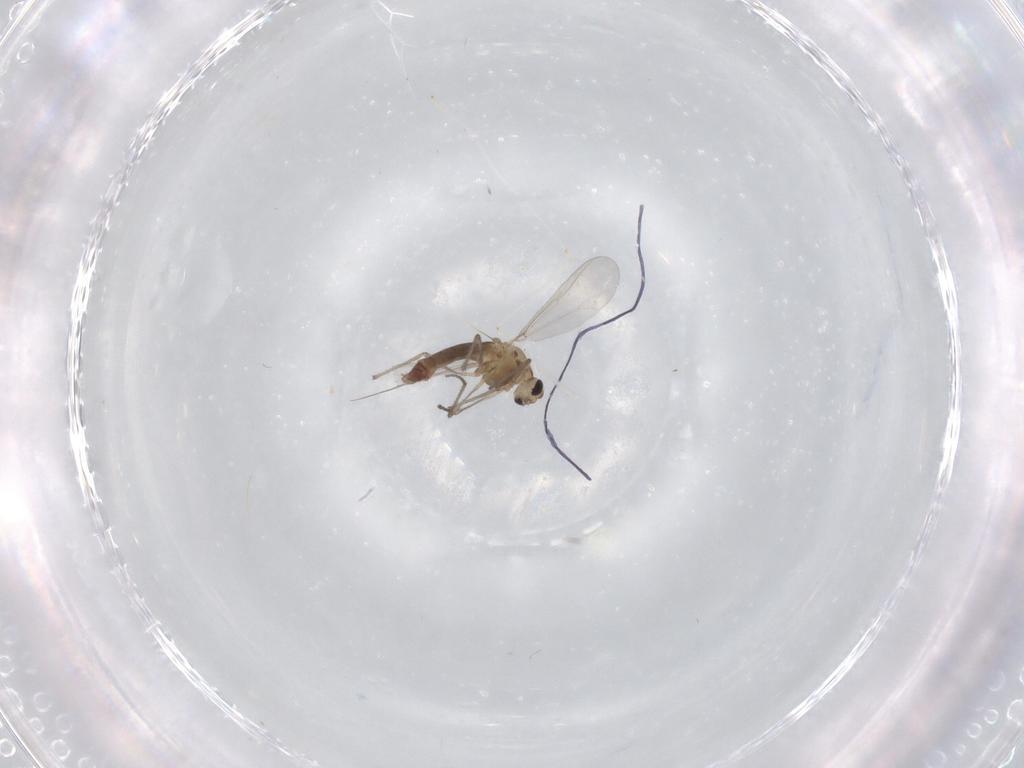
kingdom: Animalia
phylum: Arthropoda
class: Insecta
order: Diptera
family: Chironomidae
